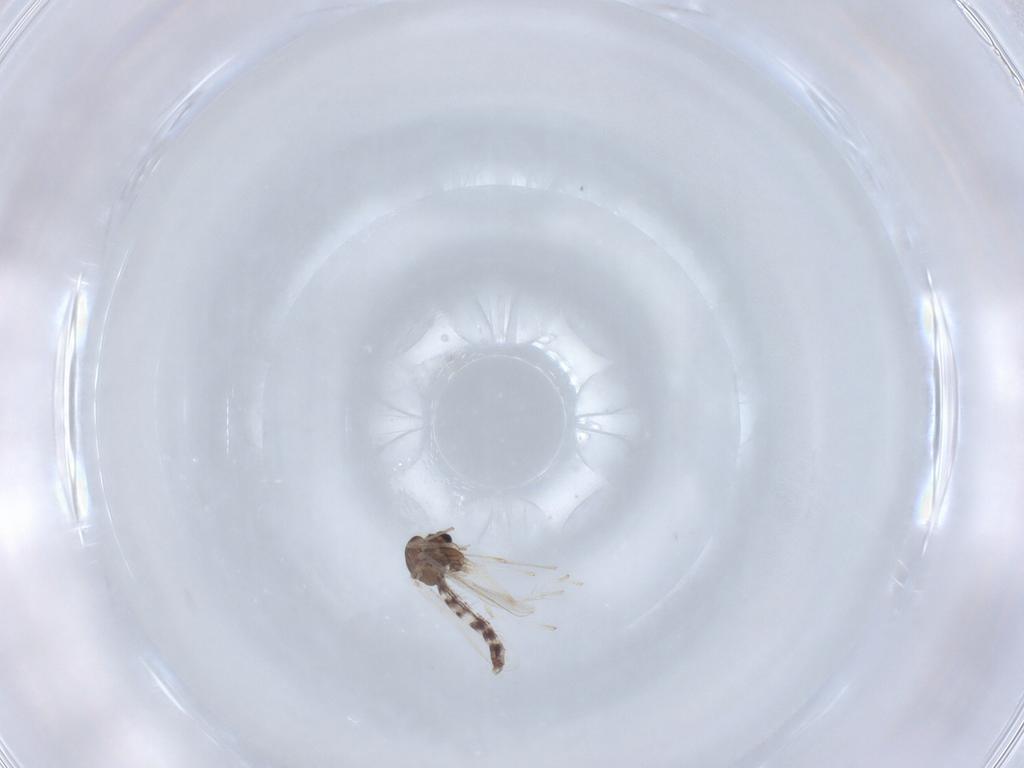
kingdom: Animalia
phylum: Arthropoda
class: Insecta
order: Diptera
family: Chironomidae
